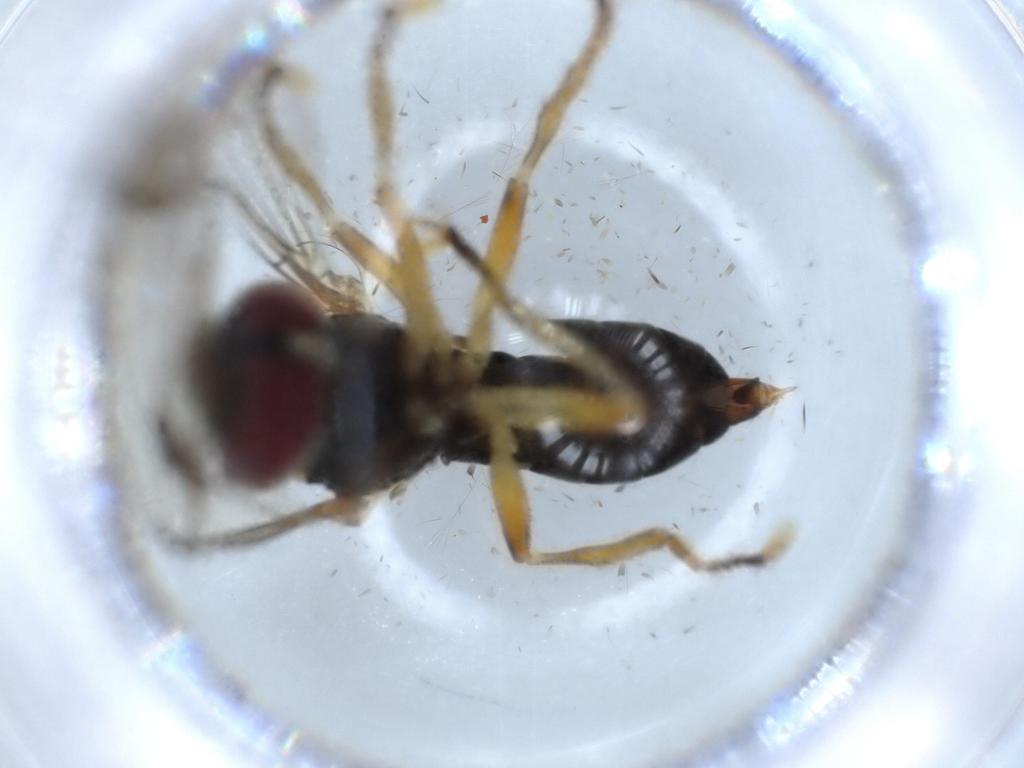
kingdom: Animalia
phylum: Arthropoda
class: Insecta
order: Diptera
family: Pipunculidae
